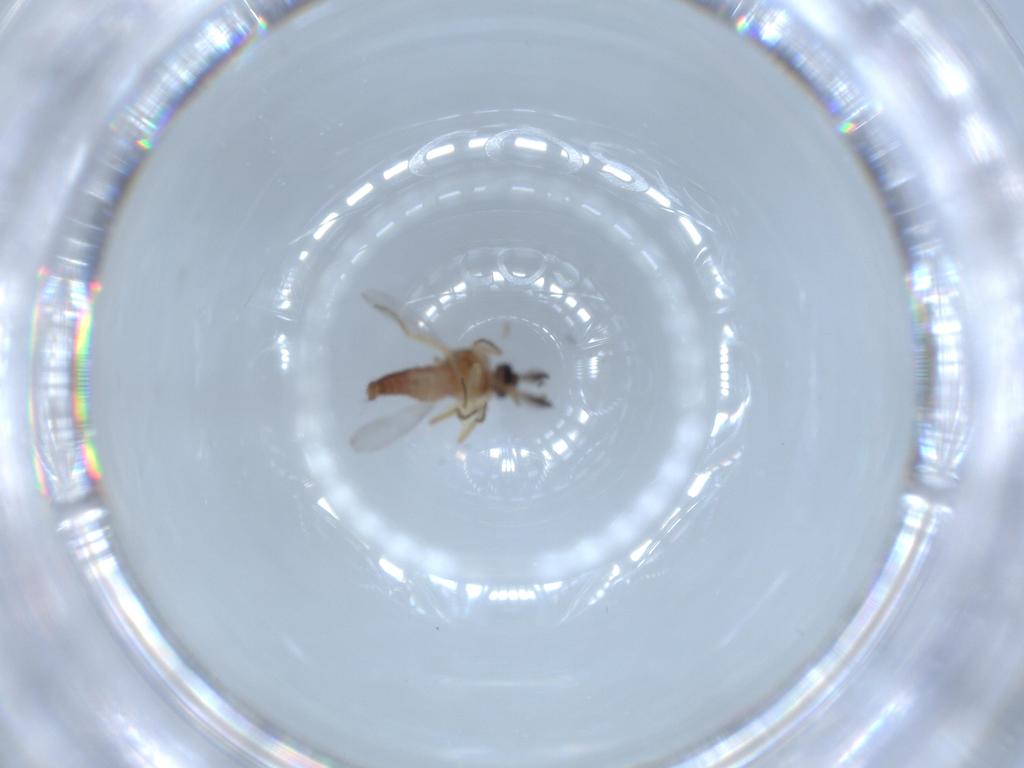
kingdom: Animalia
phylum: Arthropoda
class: Insecta
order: Diptera
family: Ceratopogonidae
